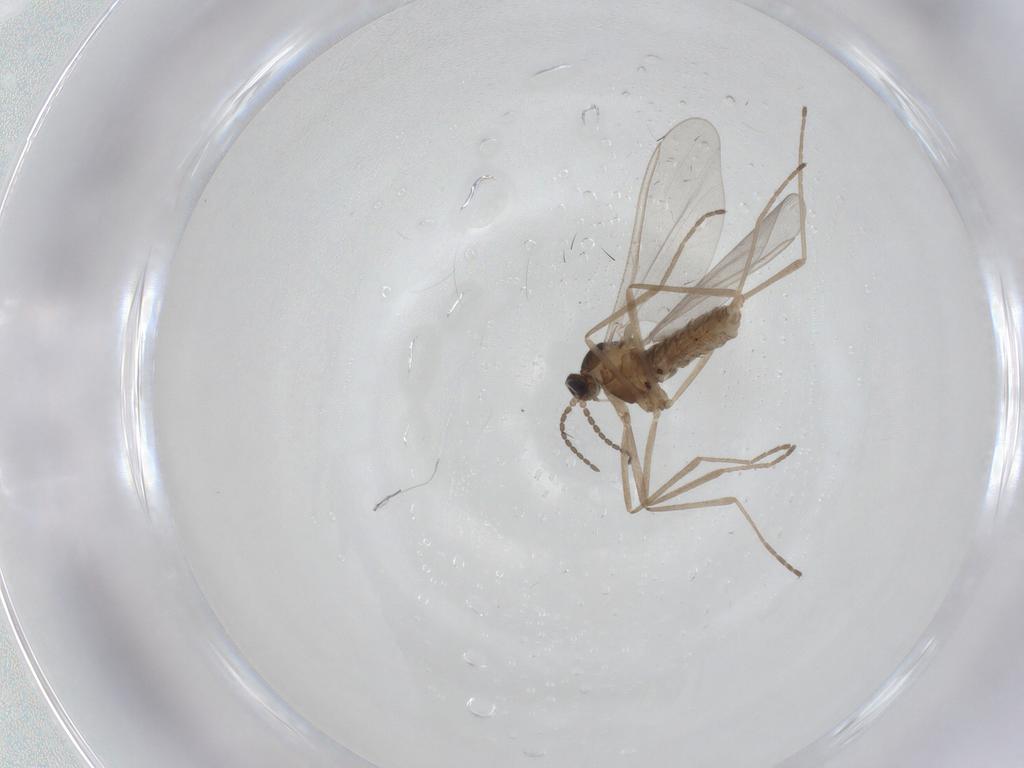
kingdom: Animalia
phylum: Arthropoda
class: Insecta
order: Diptera
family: Cecidomyiidae
